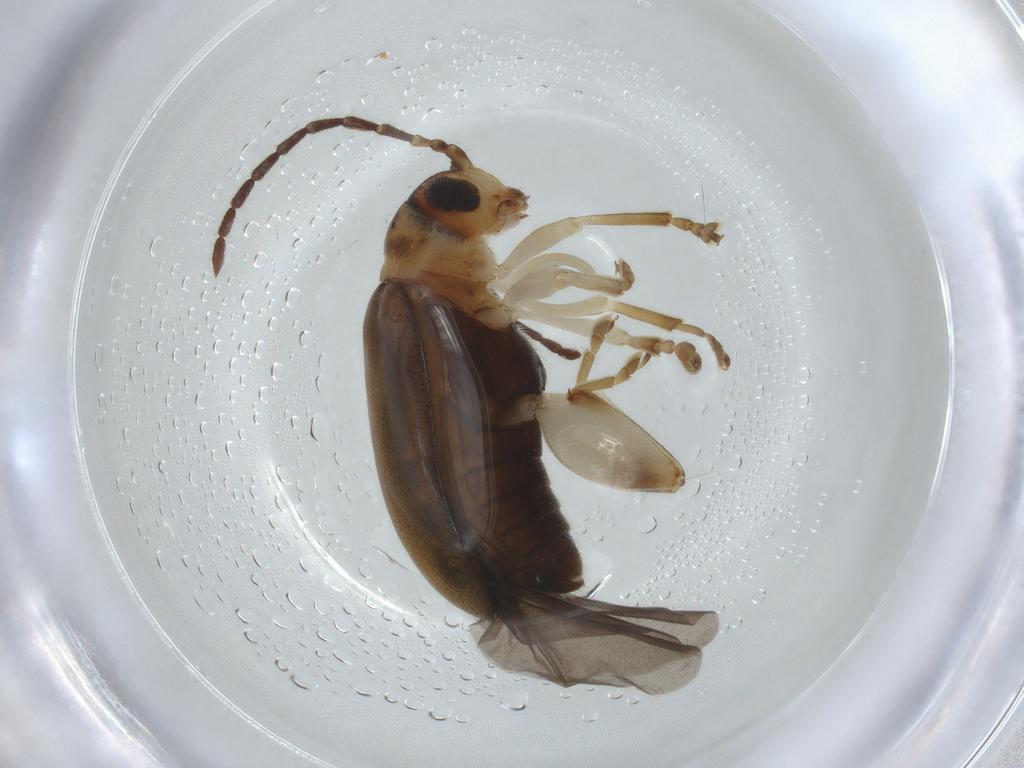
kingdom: Animalia
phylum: Arthropoda
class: Insecta
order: Coleoptera
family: Chrysomelidae
